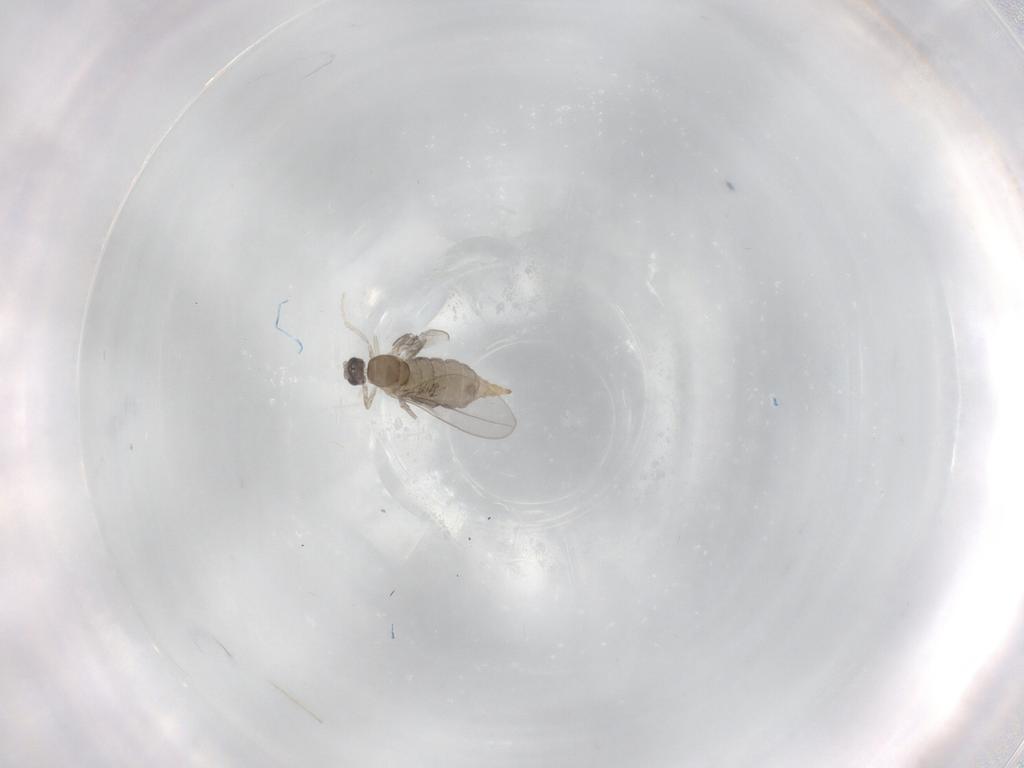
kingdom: Animalia
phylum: Arthropoda
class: Insecta
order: Diptera
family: Cecidomyiidae
